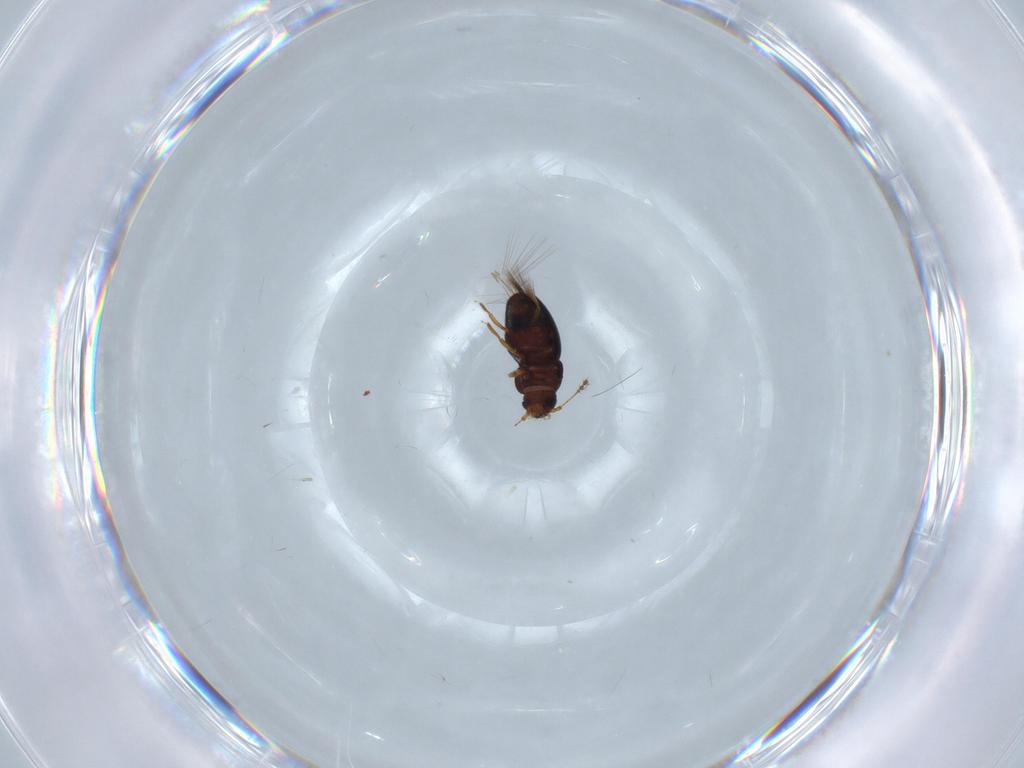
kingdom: Animalia
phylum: Arthropoda
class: Insecta
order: Coleoptera
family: Ptiliidae
